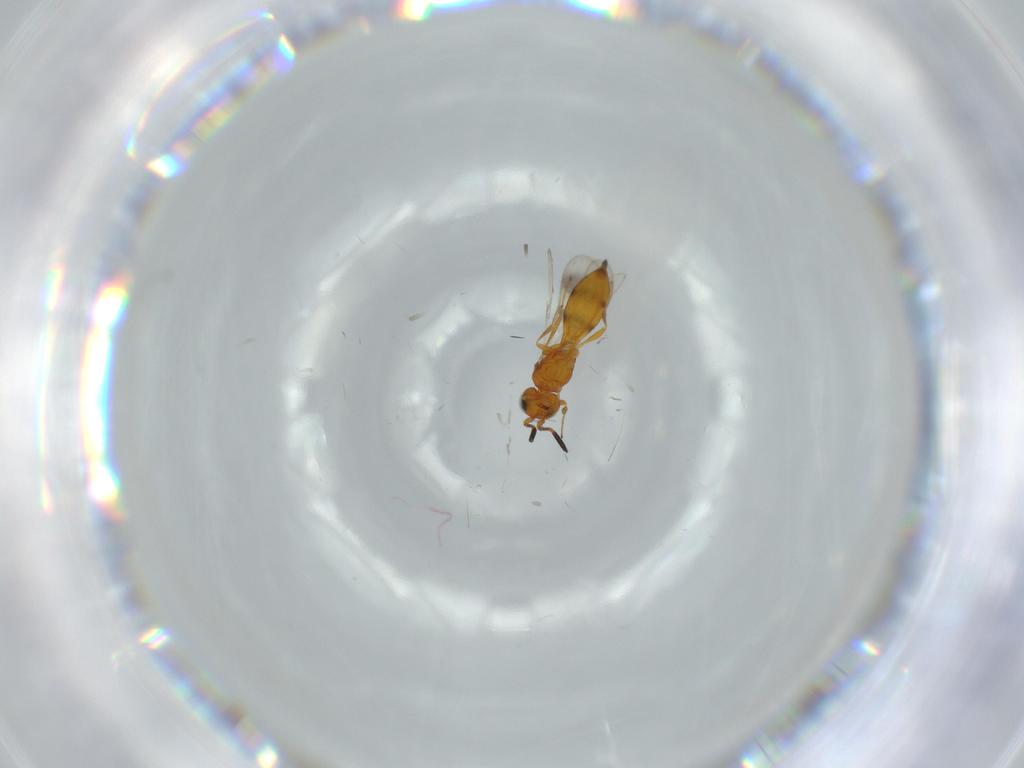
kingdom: Animalia
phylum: Arthropoda
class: Insecta
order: Hymenoptera
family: Scelionidae
